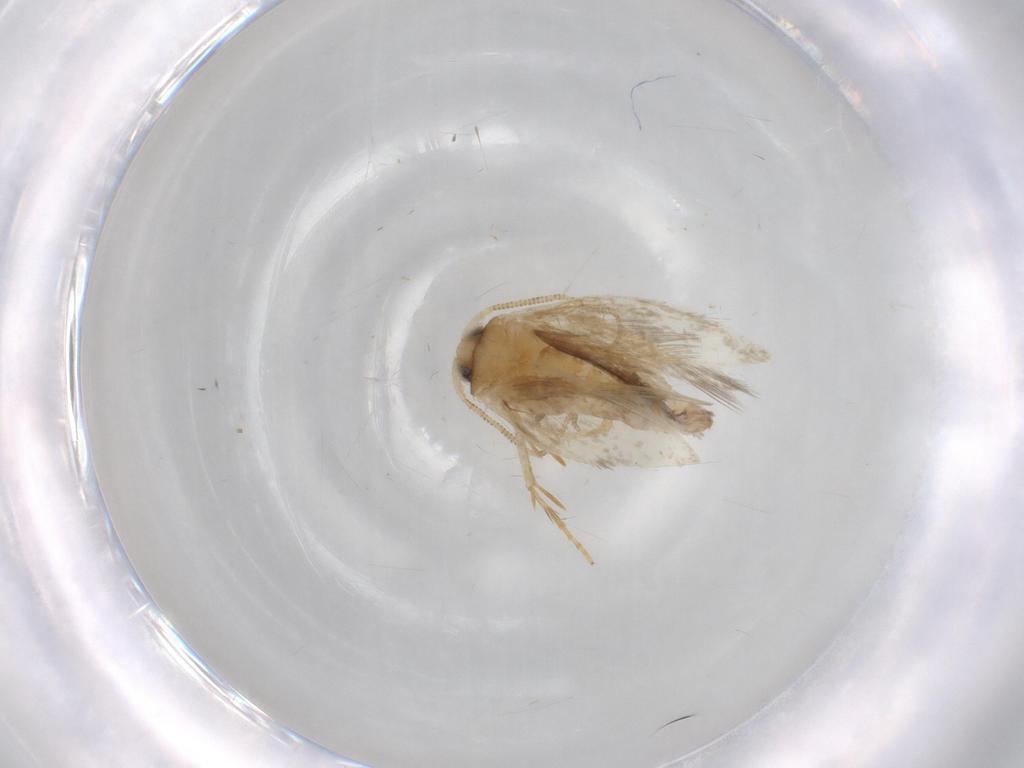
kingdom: Animalia
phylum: Arthropoda
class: Insecta
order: Lepidoptera
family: Nepticulidae
